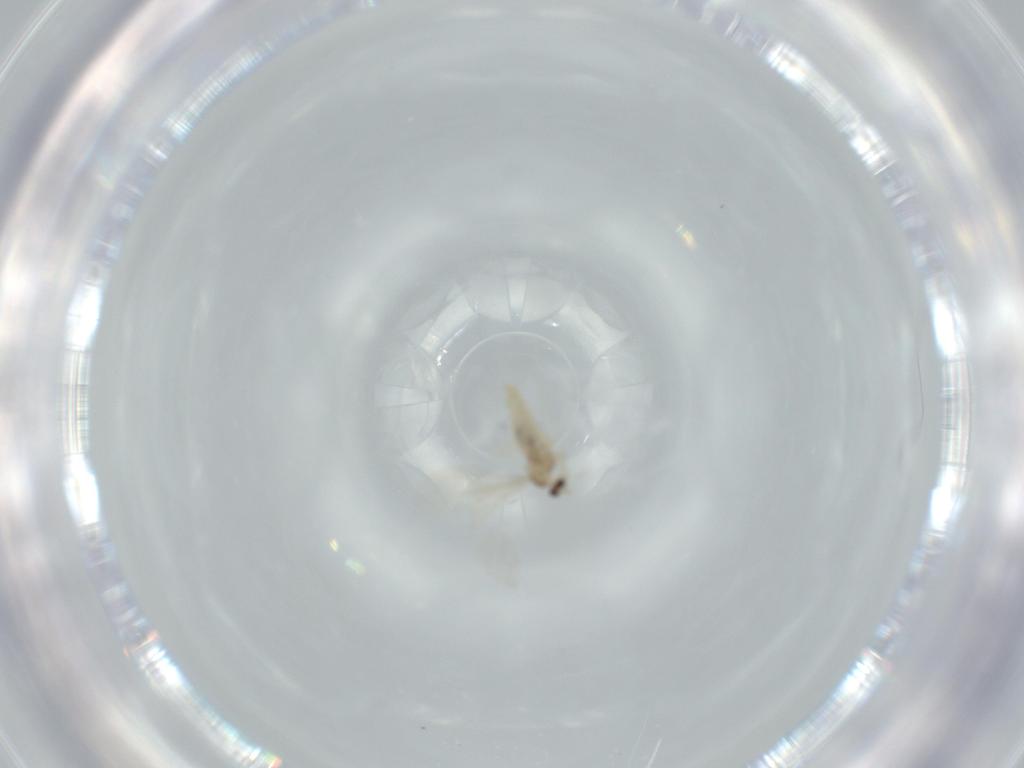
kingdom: Animalia
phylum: Arthropoda
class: Insecta
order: Diptera
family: Cecidomyiidae
